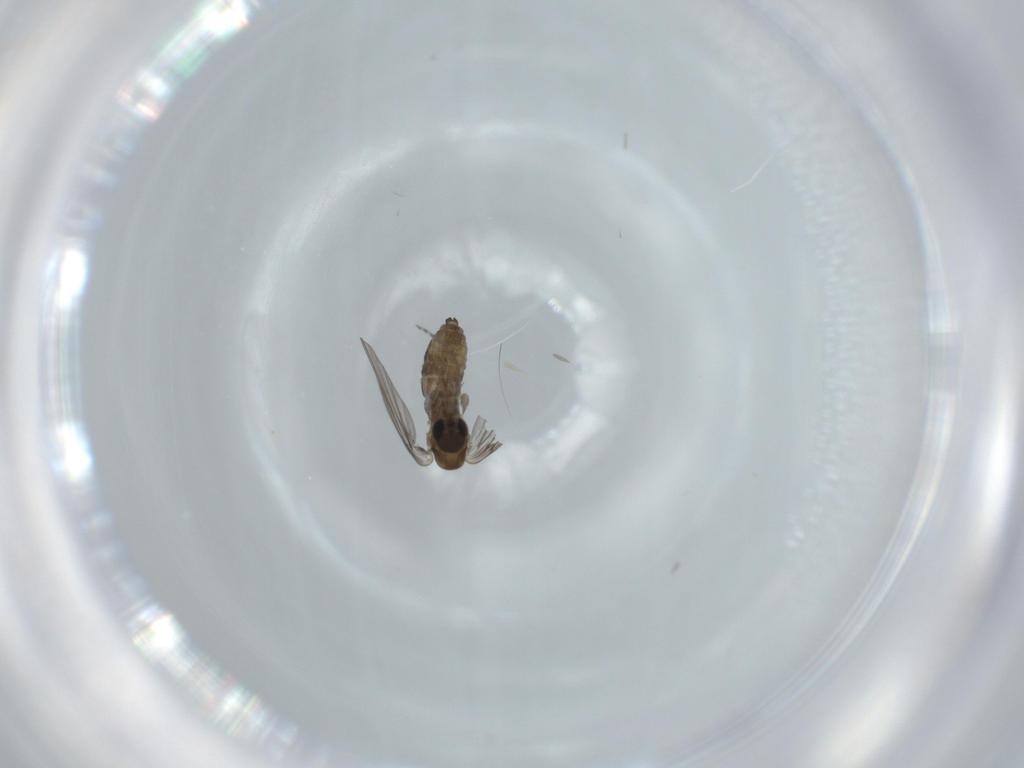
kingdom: Animalia
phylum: Arthropoda
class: Insecta
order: Diptera
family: Psychodidae
